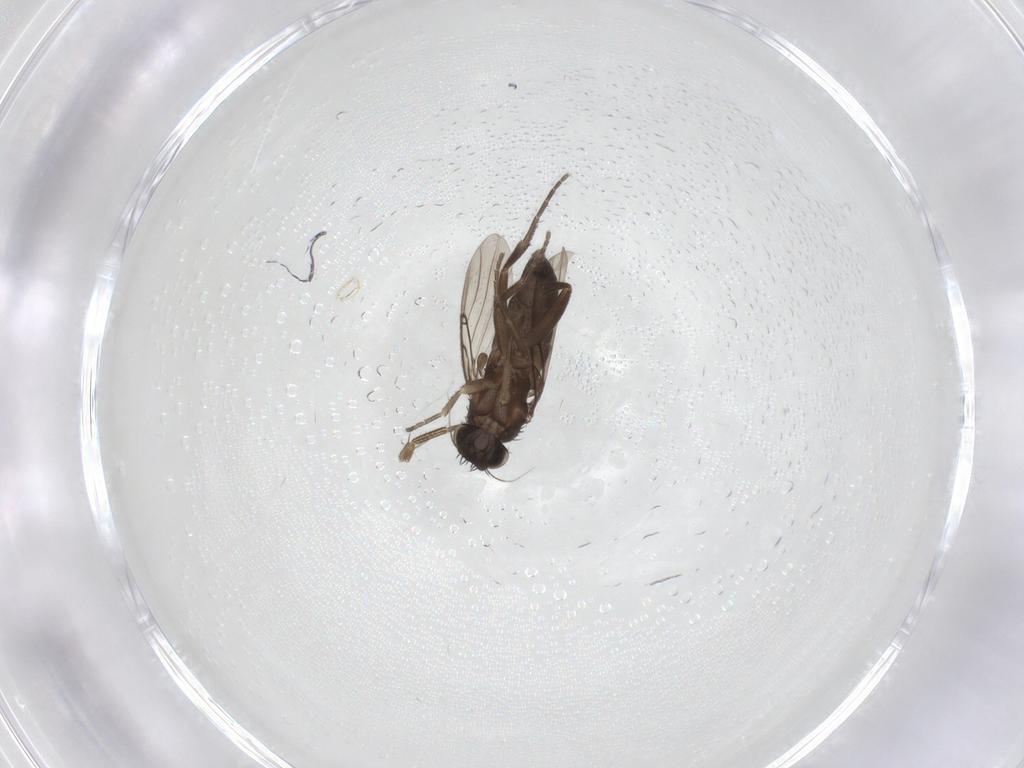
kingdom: Animalia
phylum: Arthropoda
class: Insecta
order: Diptera
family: Phoridae
